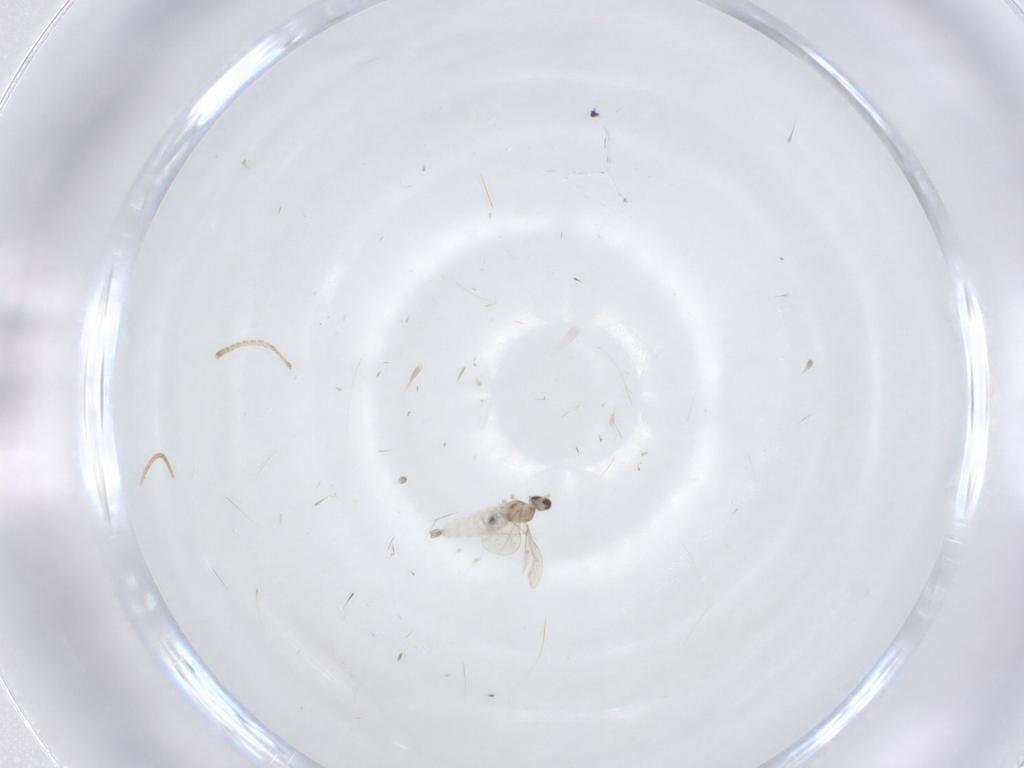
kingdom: Animalia
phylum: Arthropoda
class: Insecta
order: Diptera
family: Cecidomyiidae
